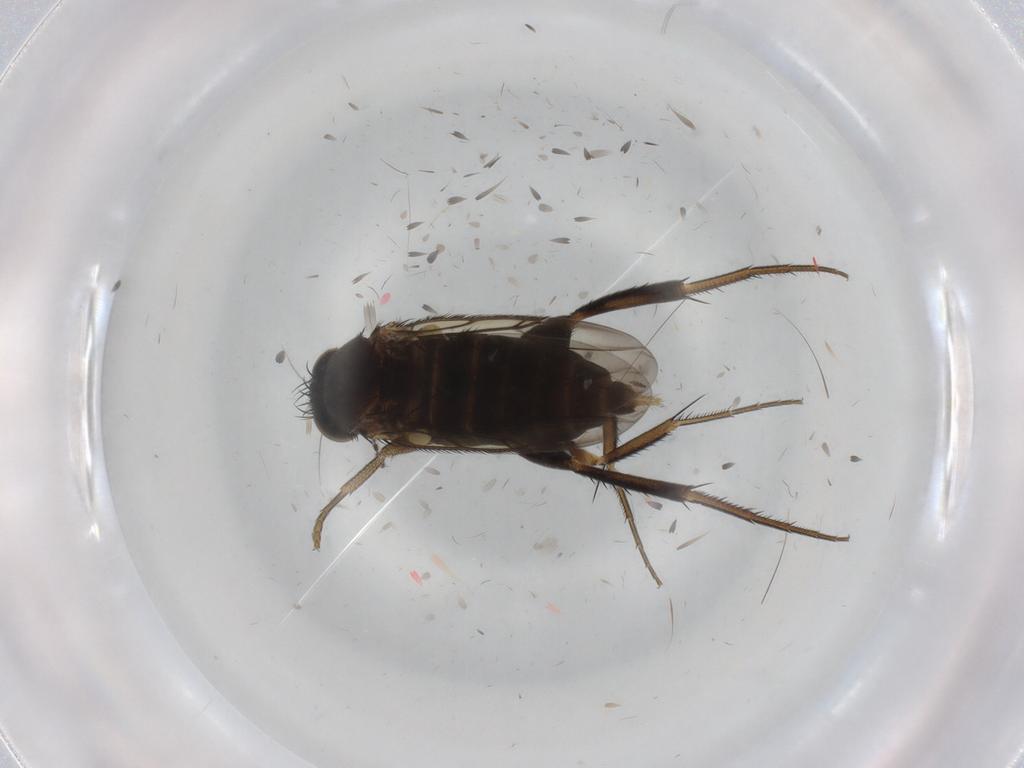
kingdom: Animalia
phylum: Arthropoda
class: Insecta
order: Diptera
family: Phoridae
